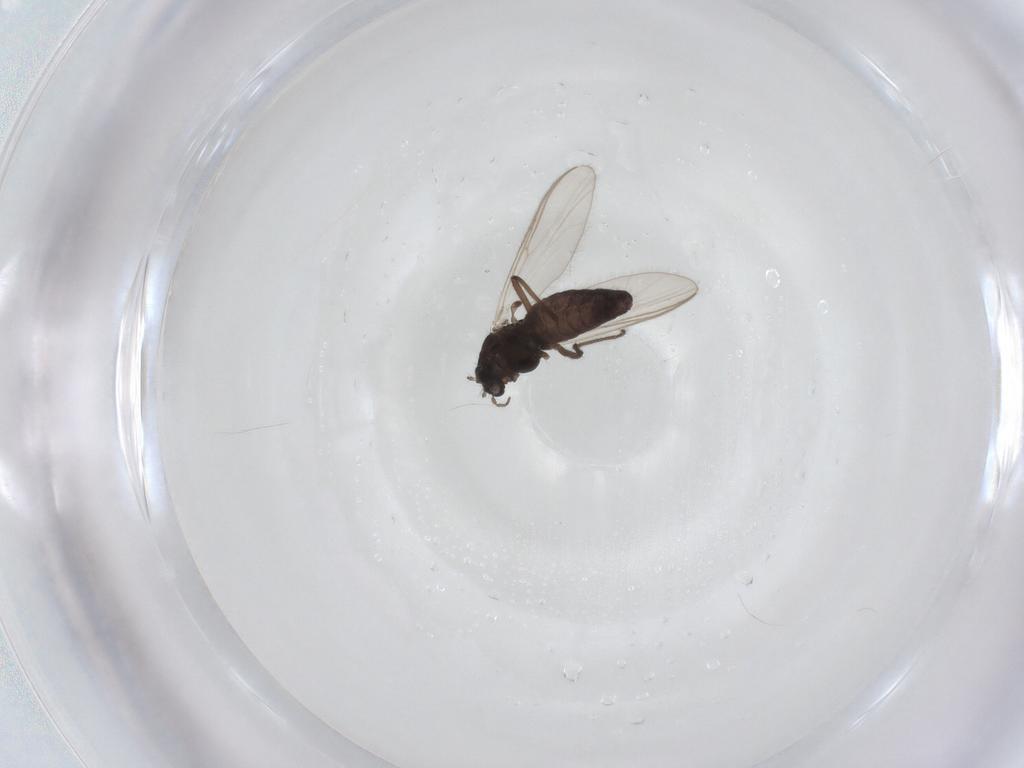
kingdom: Animalia
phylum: Arthropoda
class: Insecta
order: Diptera
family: Chironomidae
